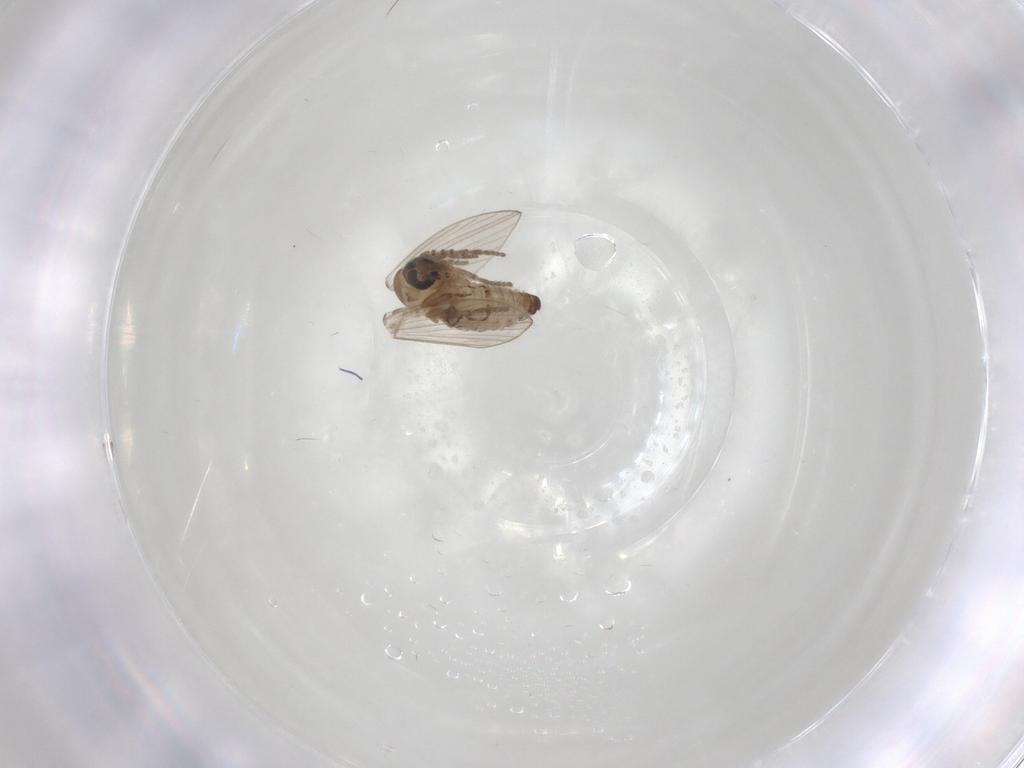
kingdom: Animalia
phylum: Arthropoda
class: Insecta
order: Diptera
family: Psychodidae
